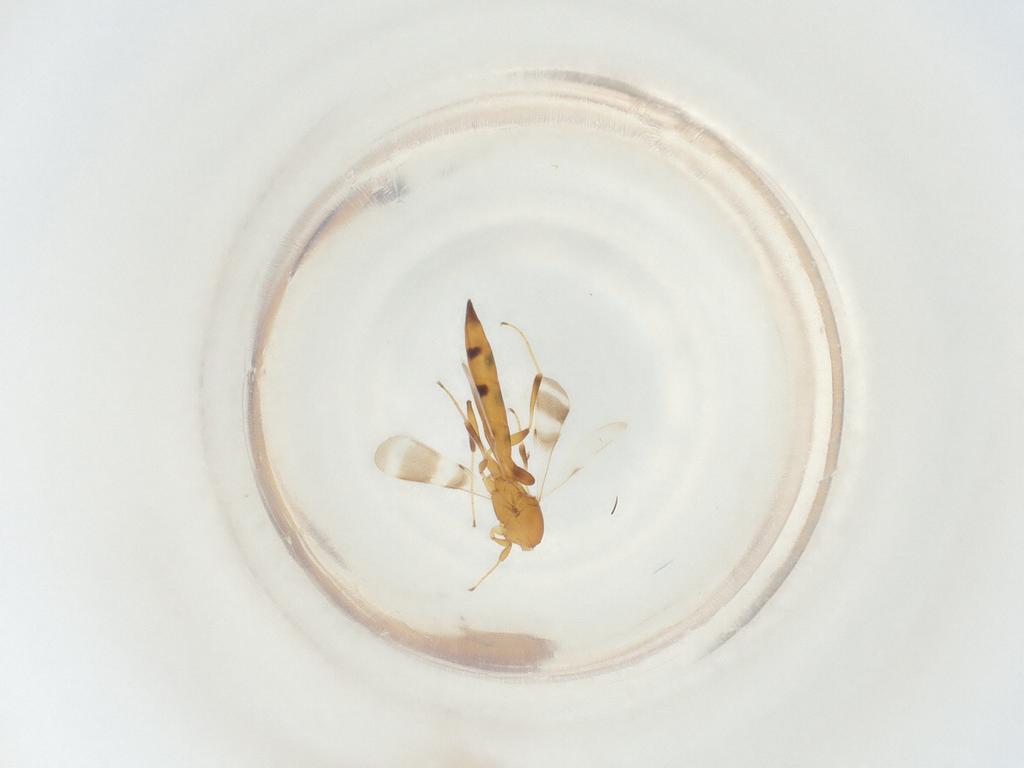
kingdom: Animalia
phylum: Arthropoda
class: Insecta
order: Hymenoptera
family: Scelionidae
